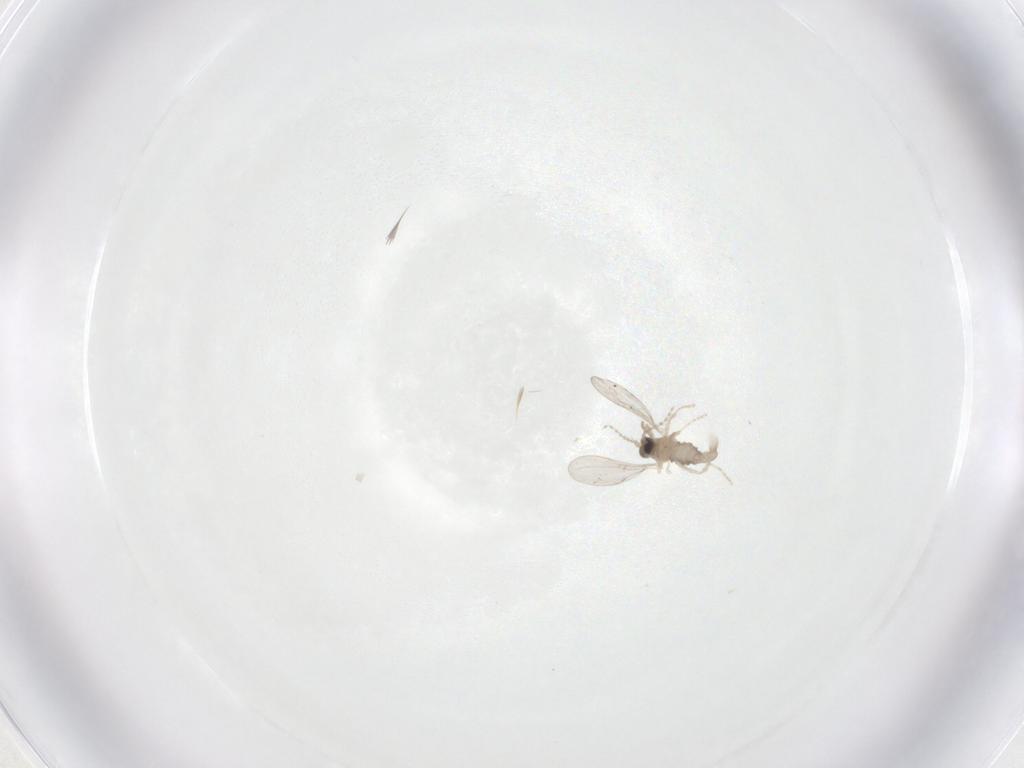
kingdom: Animalia
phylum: Arthropoda
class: Insecta
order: Diptera
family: Cecidomyiidae
